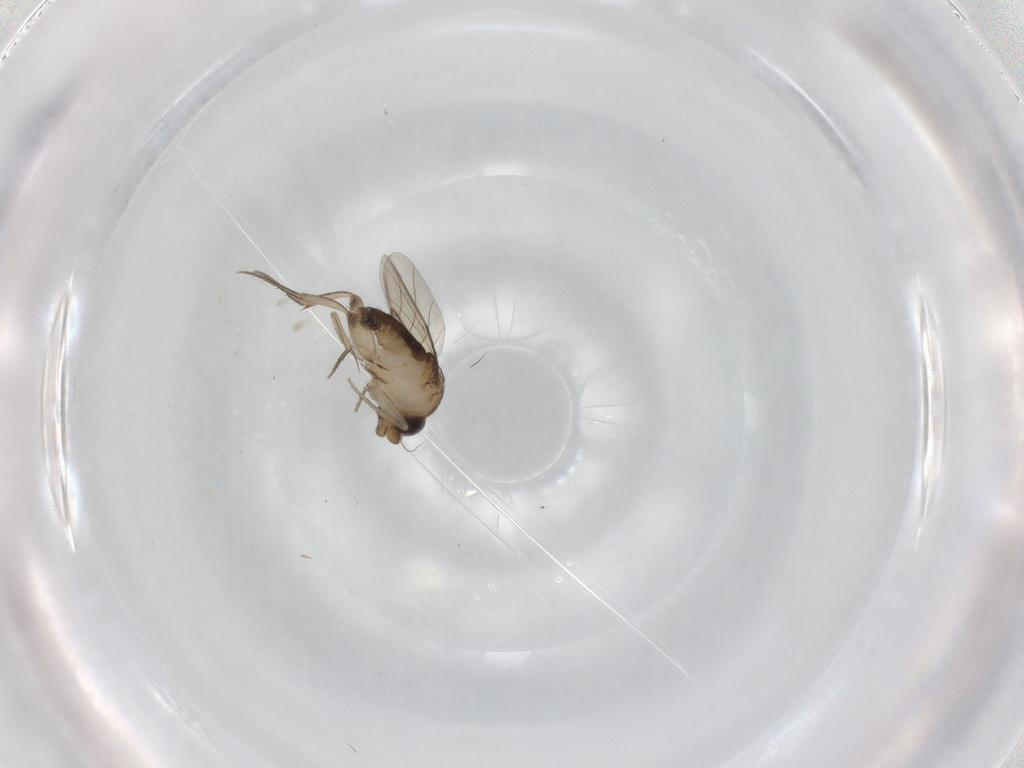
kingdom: Animalia
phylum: Arthropoda
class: Insecta
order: Diptera
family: Phoridae
